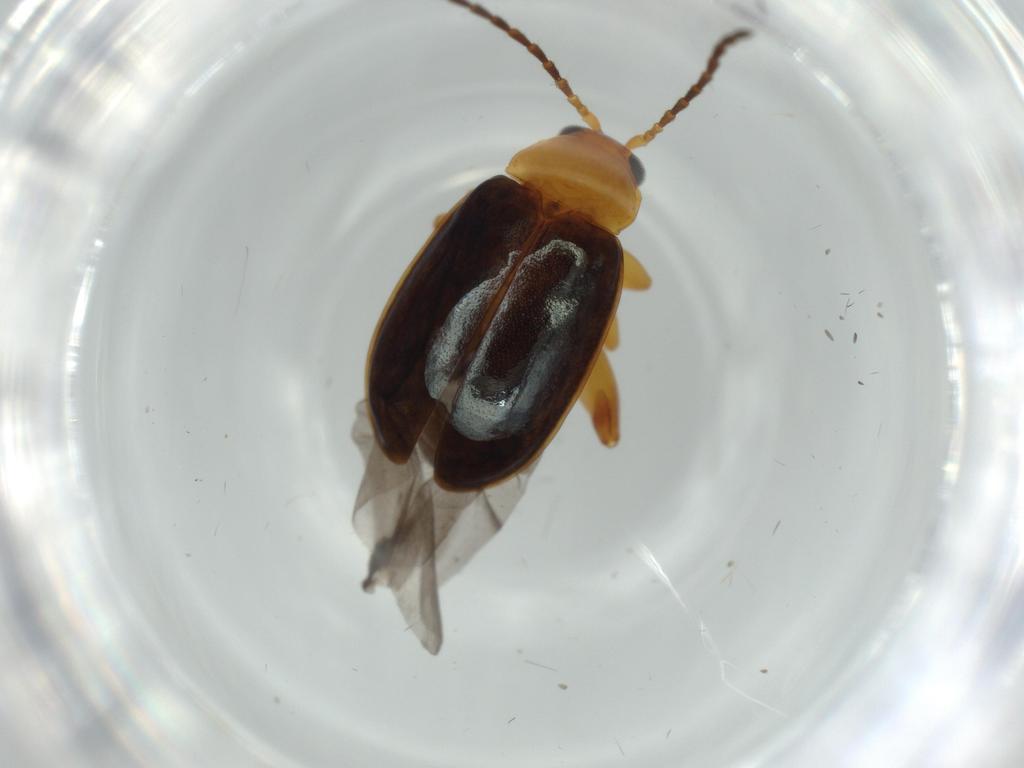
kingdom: Animalia
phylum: Arthropoda
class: Insecta
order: Coleoptera
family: Chrysomelidae
